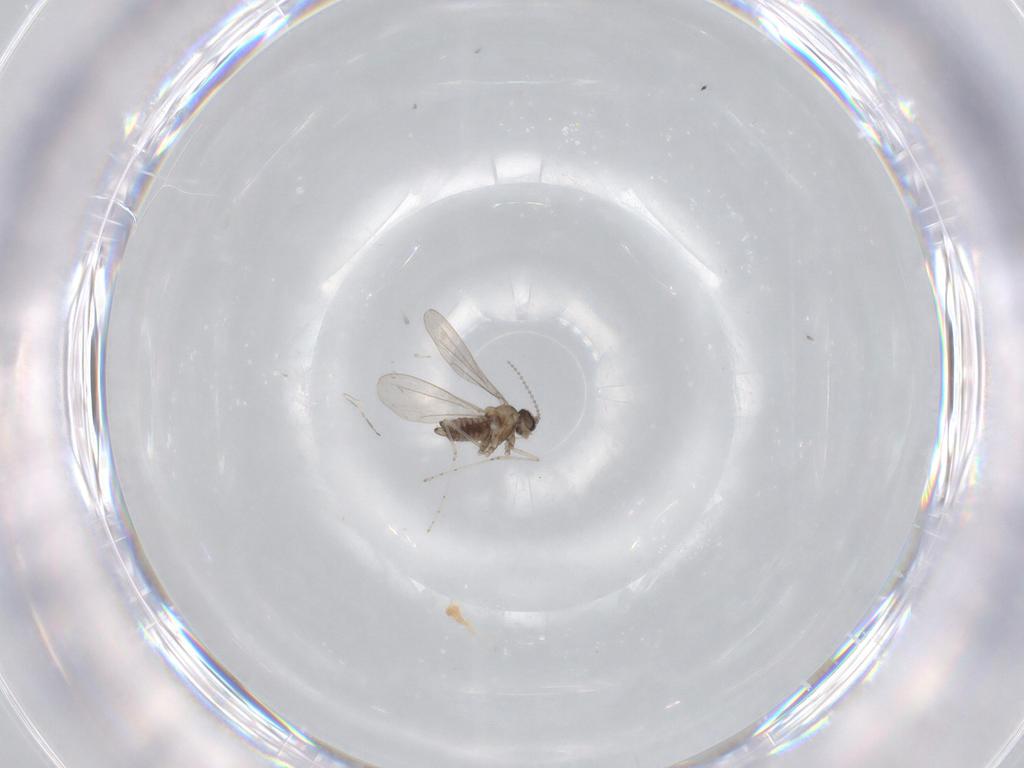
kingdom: Animalia
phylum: Arthropoda
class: Insecta
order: Diptera
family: Cecidomyiidae
